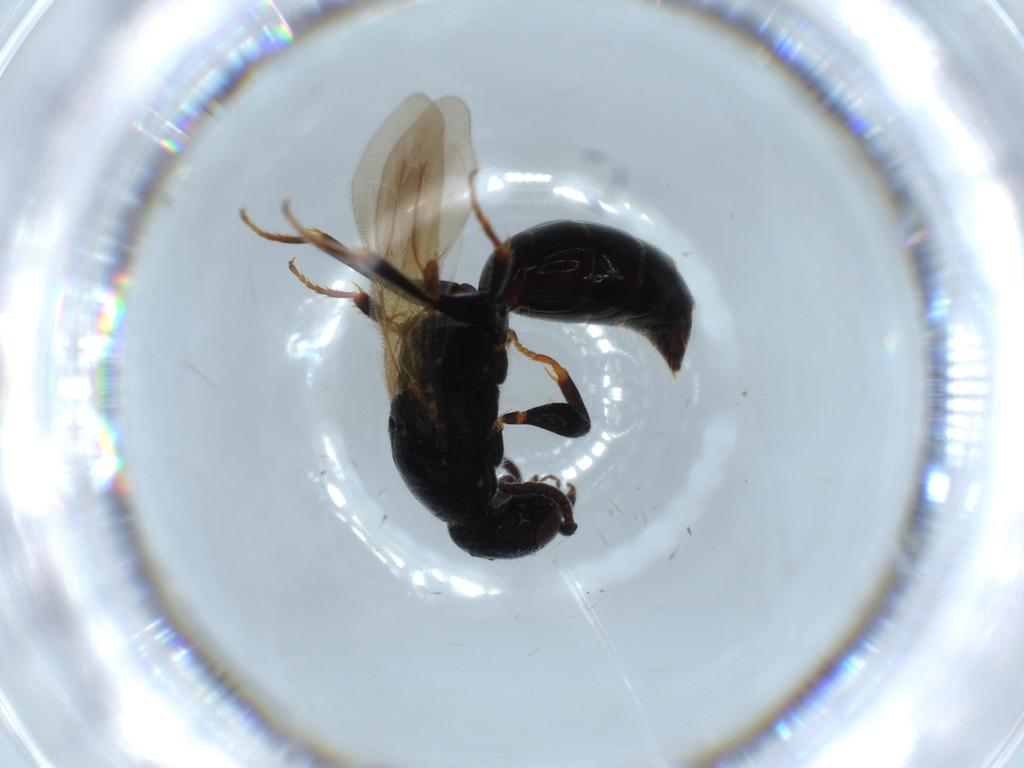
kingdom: Animalia
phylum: Arthropoda
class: Insecta
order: Hymenoptera
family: Bethylidae
